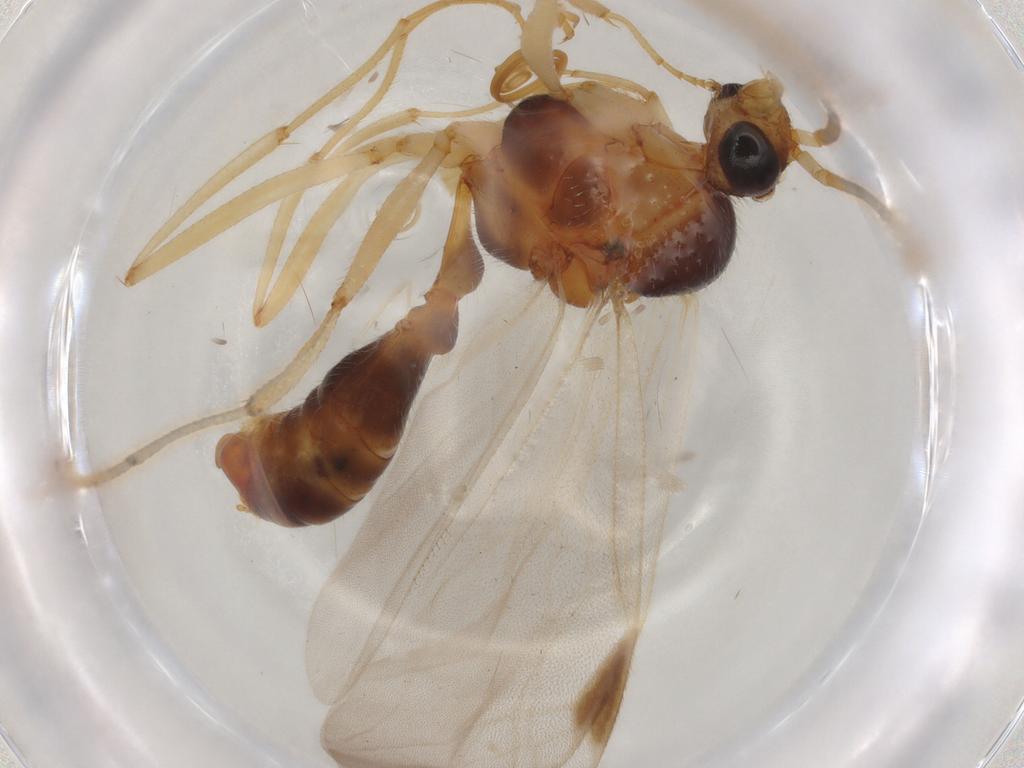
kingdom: Animalia
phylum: Arthropoda
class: Insecta
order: Hymenoptera
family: Formicidae
